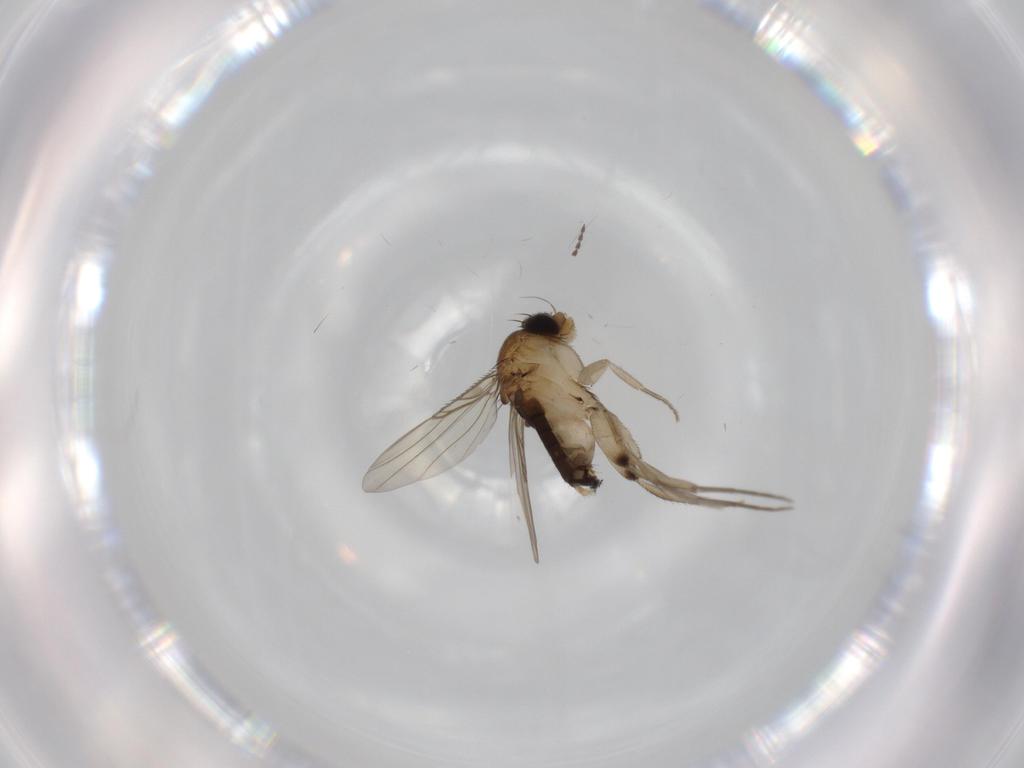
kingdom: Animalia
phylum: Arthropoda
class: Insecta
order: Diptera
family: Phoridae
